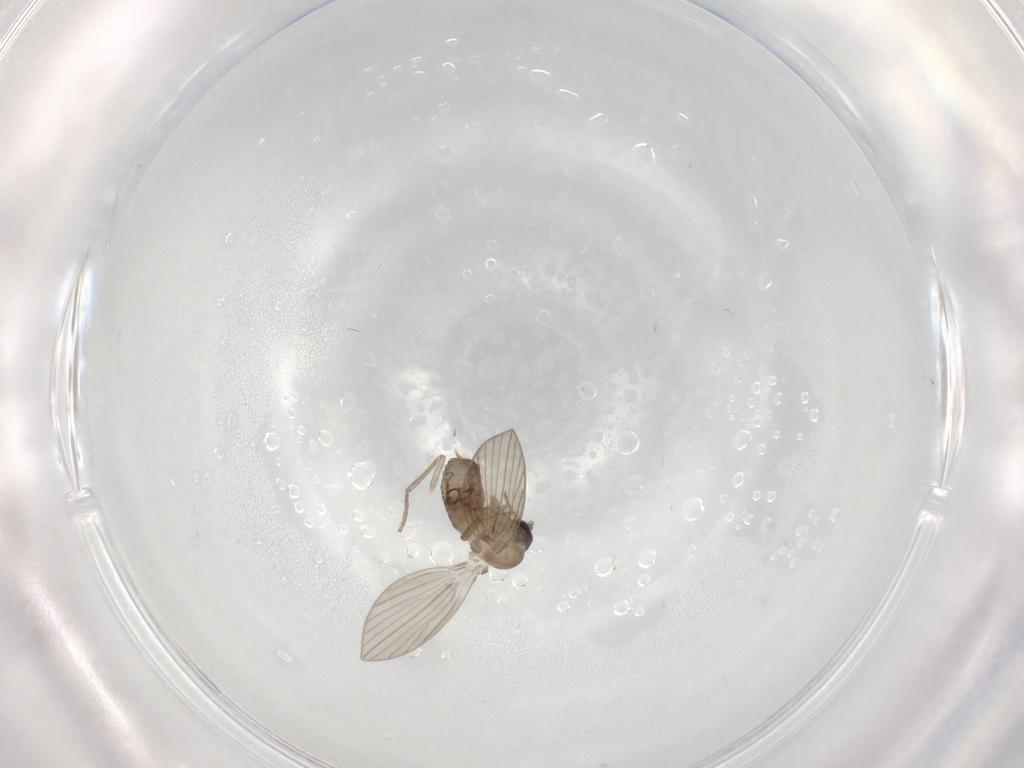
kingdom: Animalia
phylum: Arthropoda
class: Insecta
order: Diptera
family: Psychodidae
